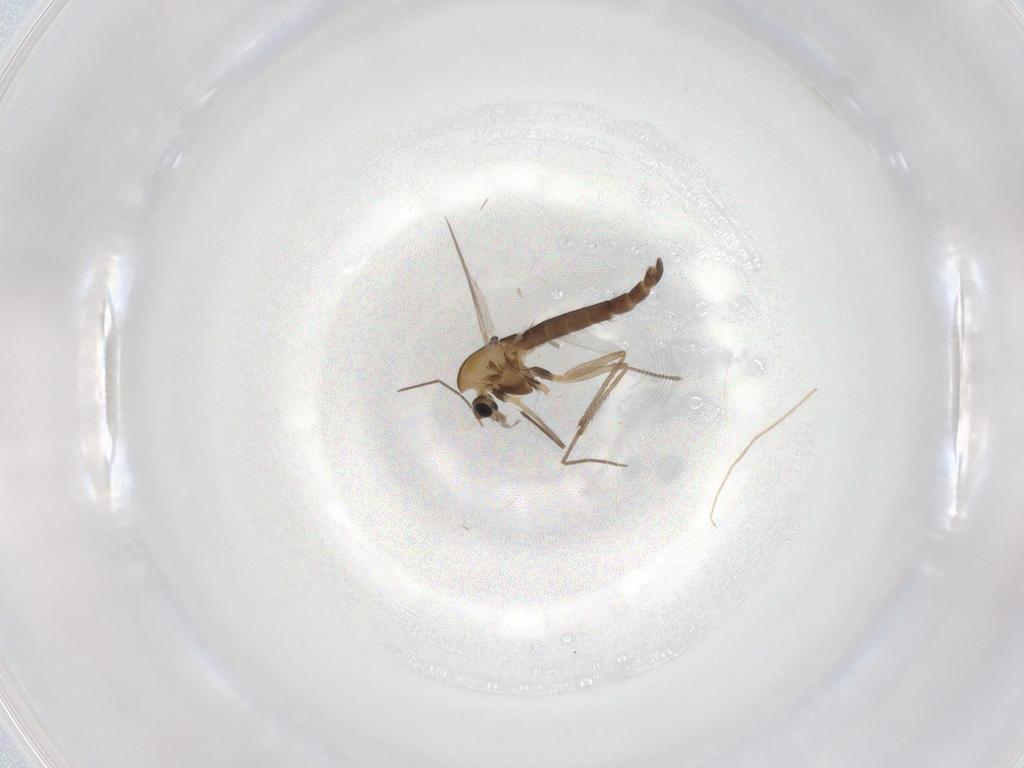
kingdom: Animalia
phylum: Arthropoda
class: Insecta
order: Diptera
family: Chironomidae
